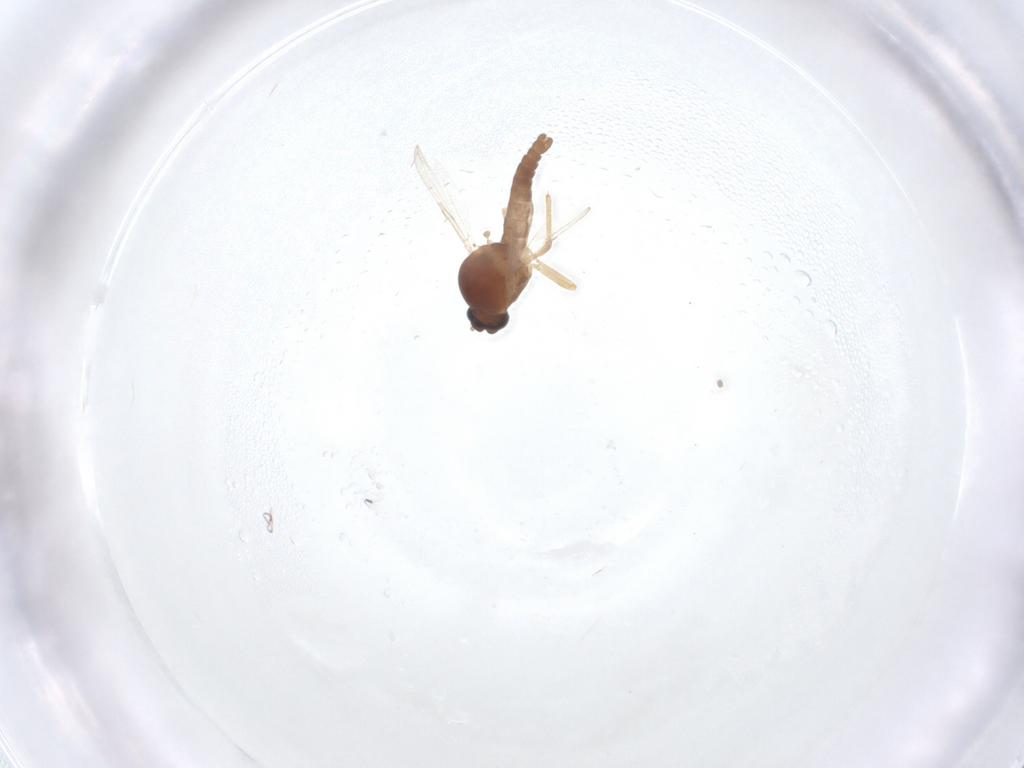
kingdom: Animalia
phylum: Arthropoda
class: Insecta
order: Diptera
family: Ceratopogonidae
